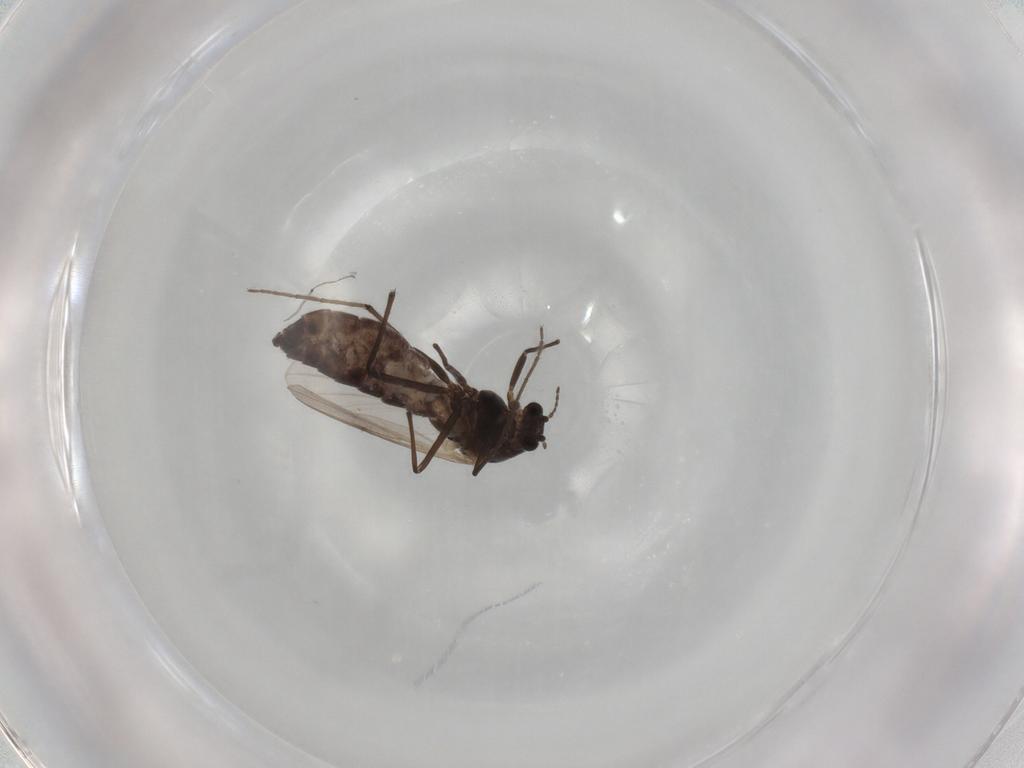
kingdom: Animalia
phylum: Arthropoda
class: Insecta
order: Diptera
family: Chironomidae
